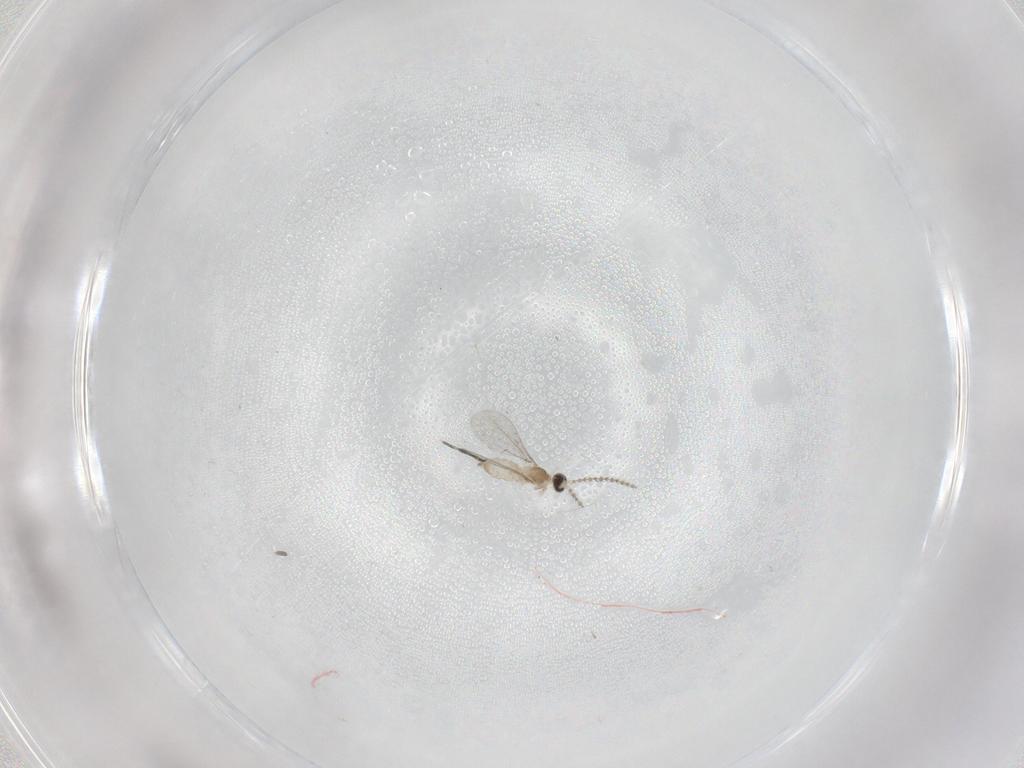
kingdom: Animalia
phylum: Arthropoda
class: Insecta
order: Diptera
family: Cecidomyiidae
